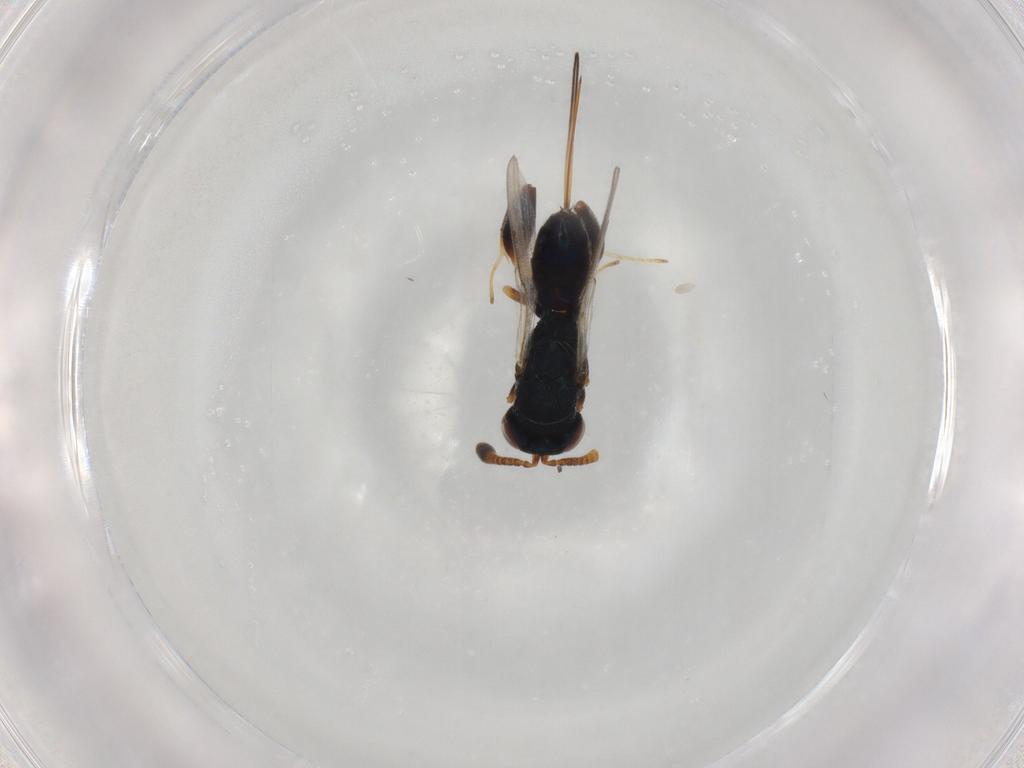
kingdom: Animalia
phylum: Arthropoda
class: Insecta
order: Hymenoptera
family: Torymidae
